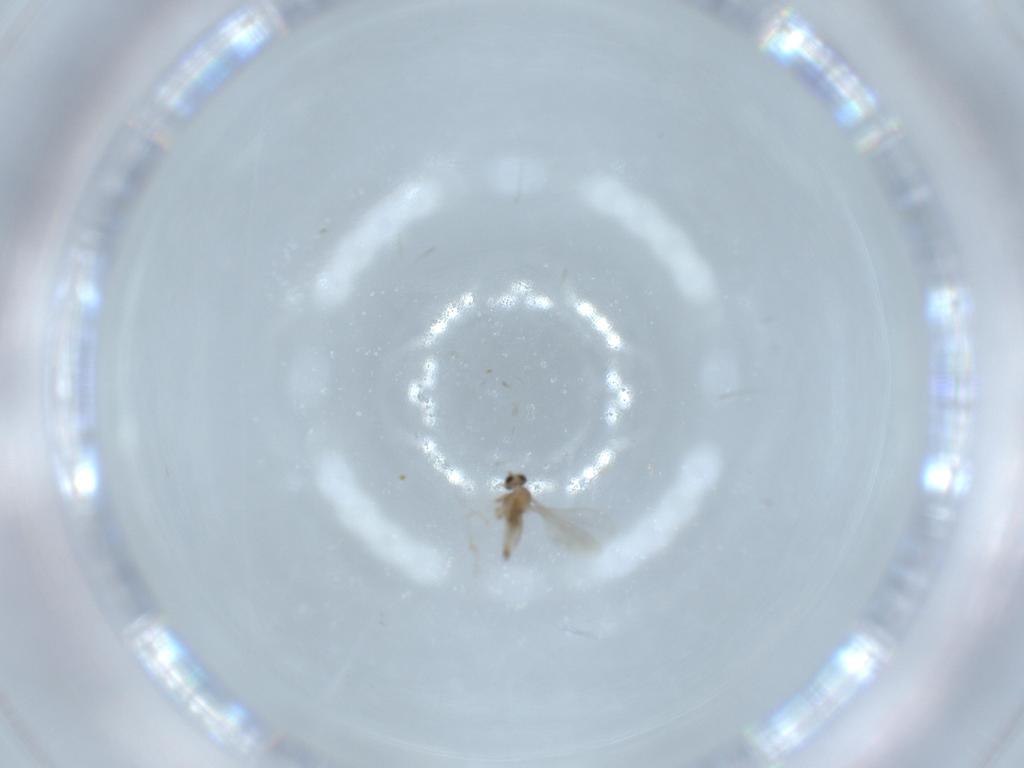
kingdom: Animalia
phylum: Arthropoda
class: Insecta
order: Diptera
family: Cecidomyiidae
